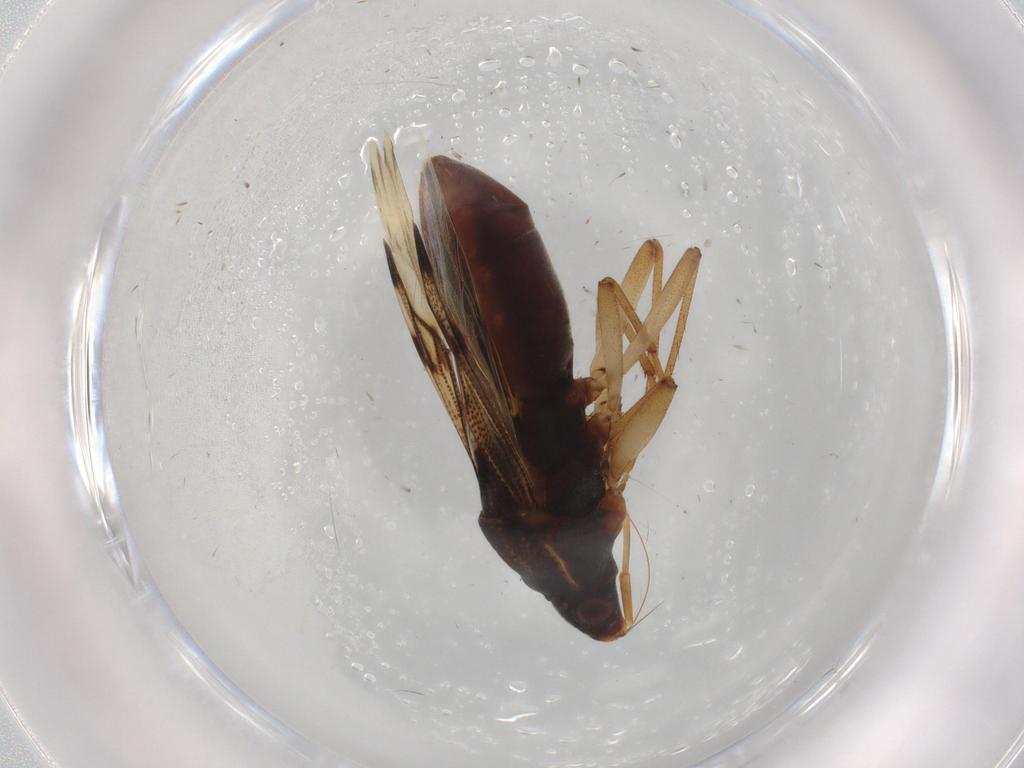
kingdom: Animalia
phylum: Arthropoda
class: Insecta
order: Hemiptera
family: Rhyparochromidae
